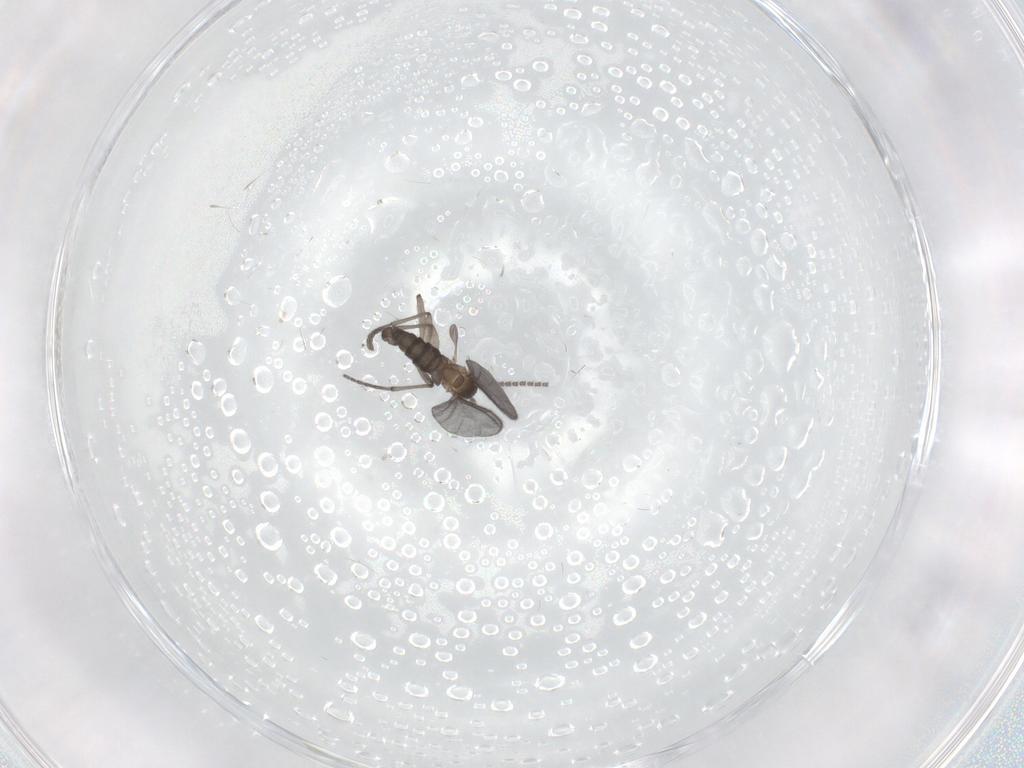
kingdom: Animalia
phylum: Arthropoda
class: Insecta
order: Diptera
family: Sciaridae
